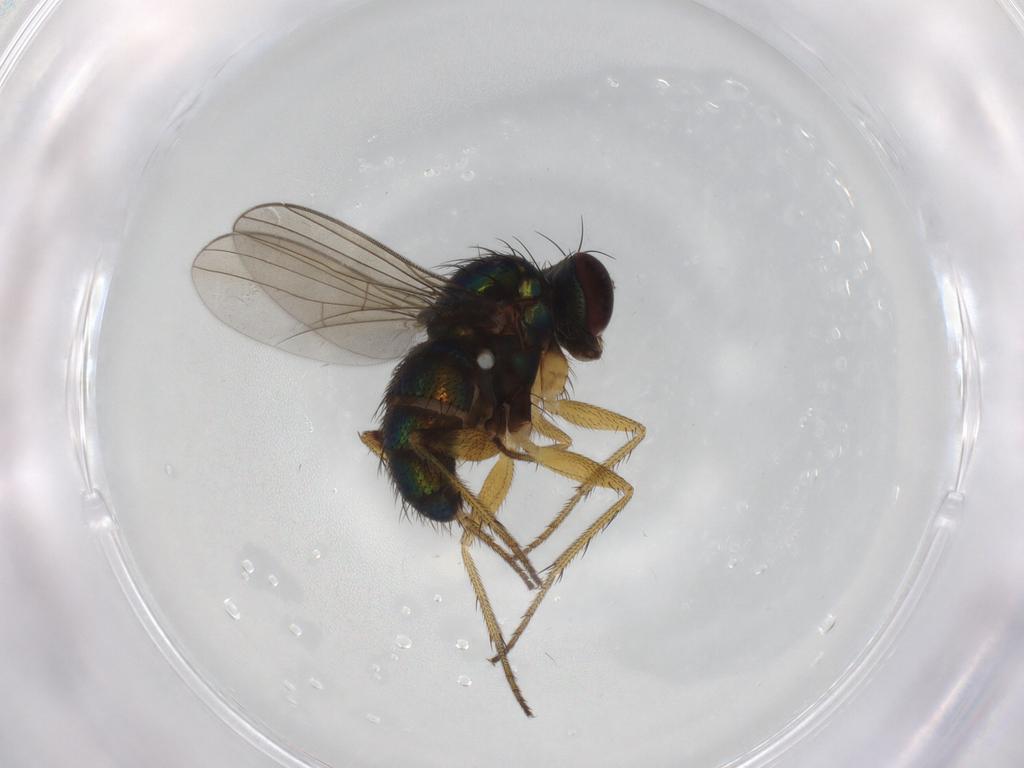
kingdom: Animalia
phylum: Arthropoda
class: Insecta
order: Diptera
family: Dolichopodidae
